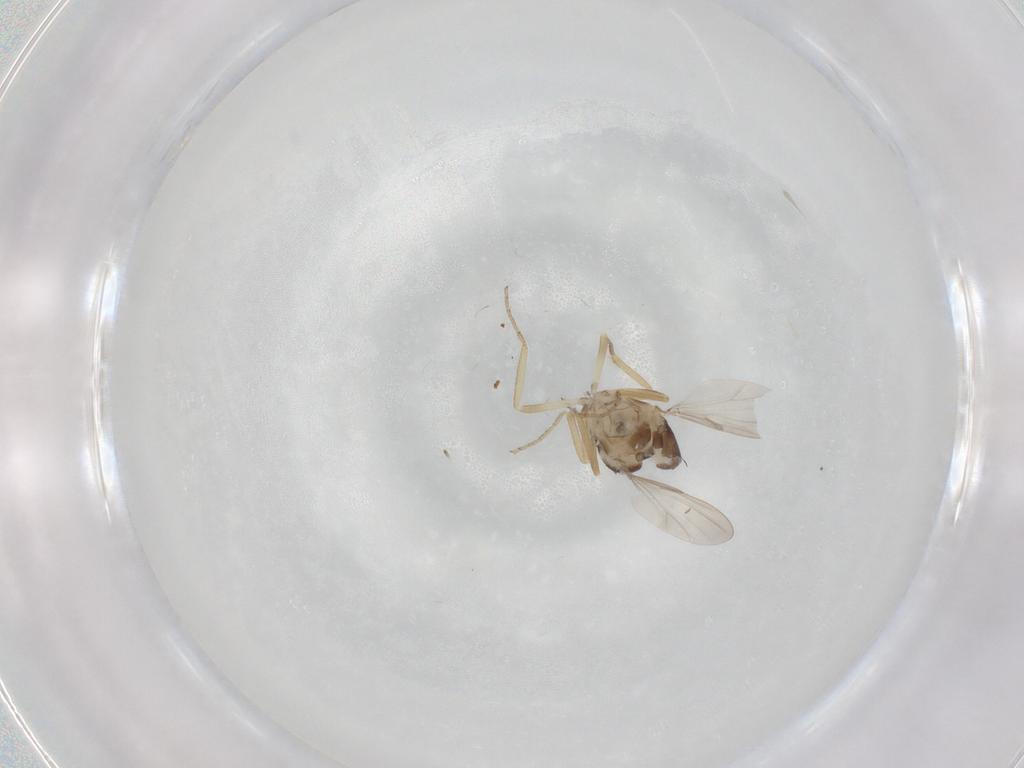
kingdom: Animalia
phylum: Arthropoda
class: Insecta
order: Diptera
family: Ceratopogonidae
